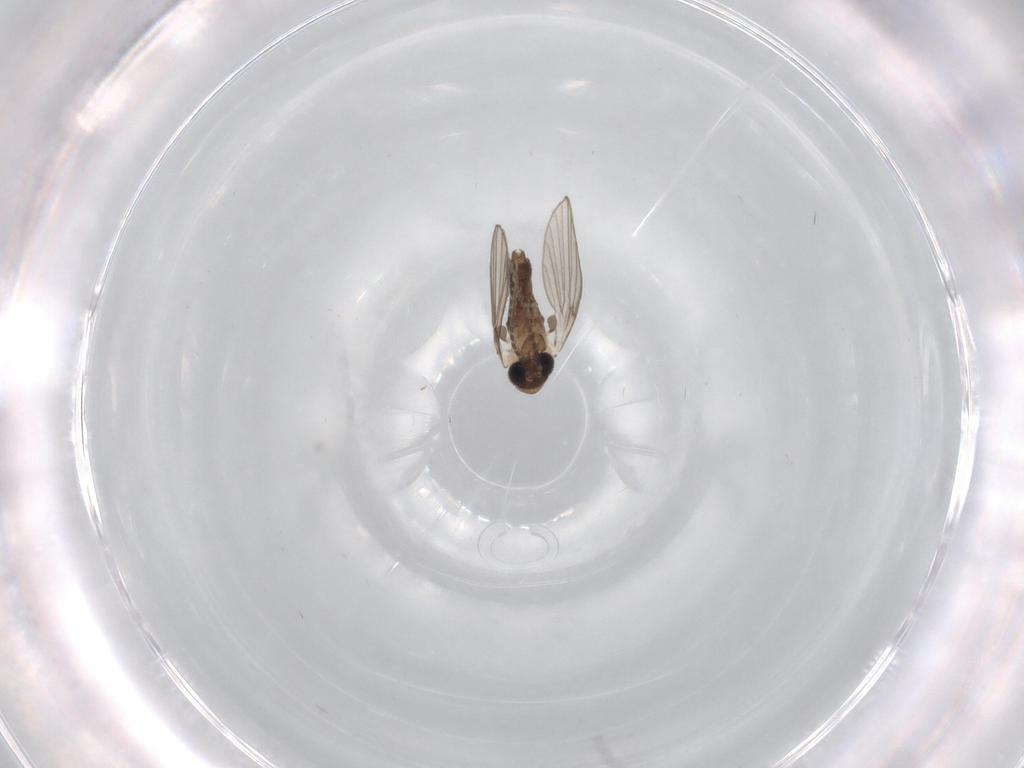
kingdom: Animalia
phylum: Arthropoda
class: Insecta
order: Diptera
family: Psychodidae
